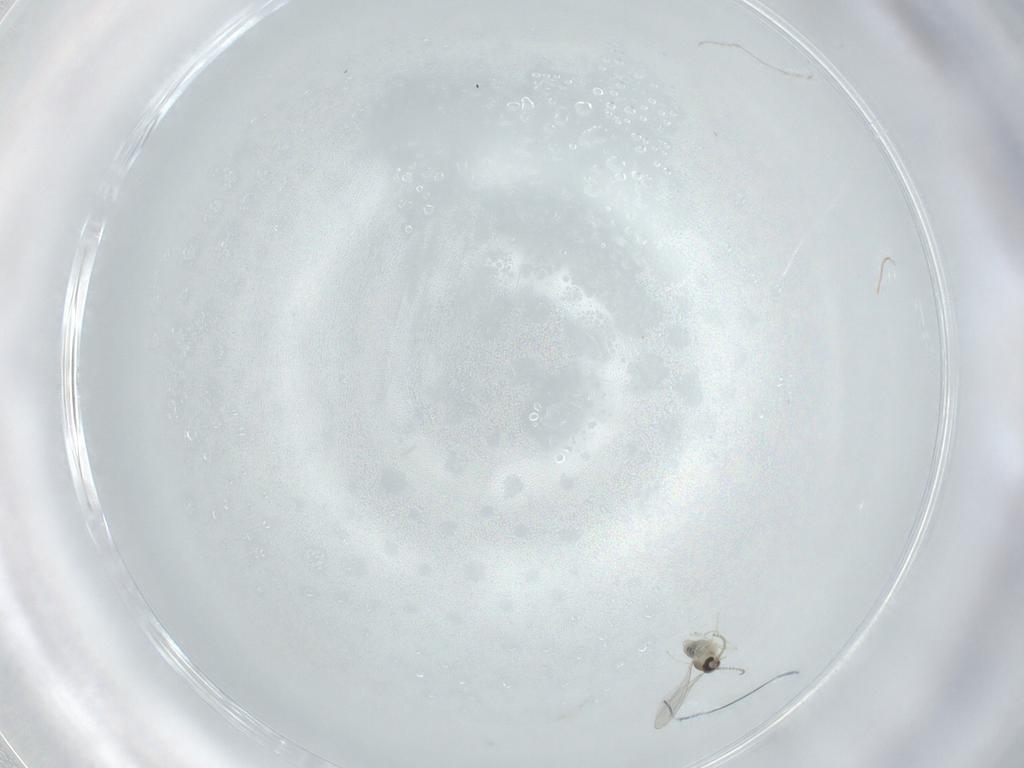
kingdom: Animalia
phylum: Arthropoda
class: Insecta
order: Diptera
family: Cecidomyiidae
